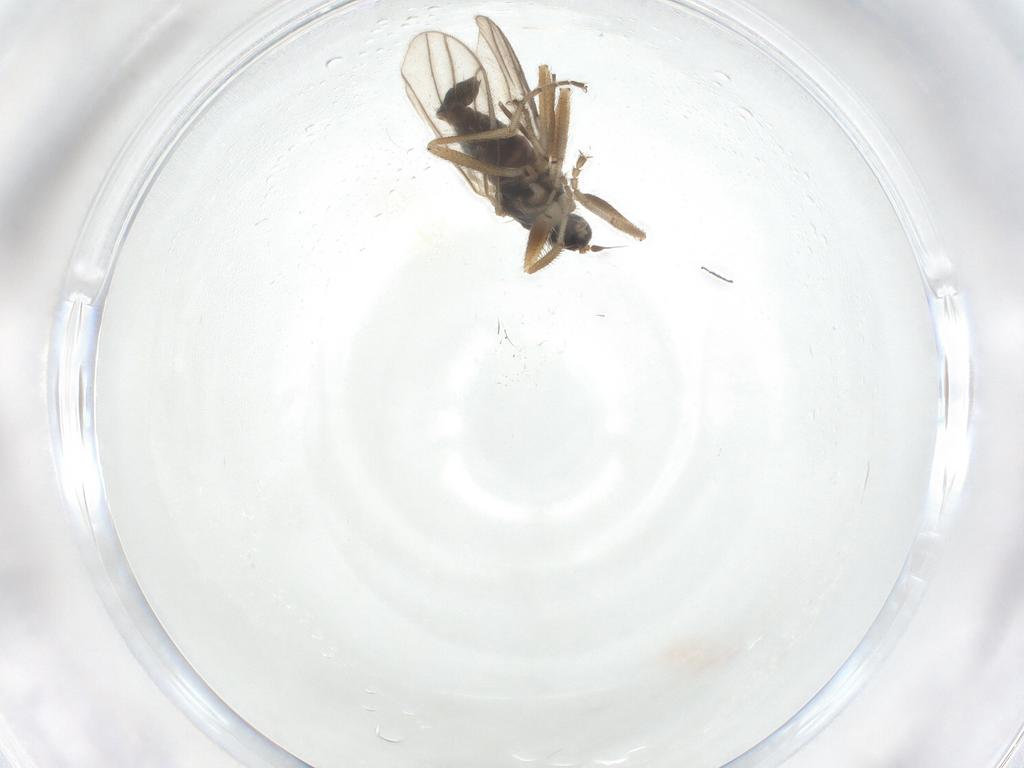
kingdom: Animalia
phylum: Arthropoda
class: Insecta
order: Diptera
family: Hybotidae
